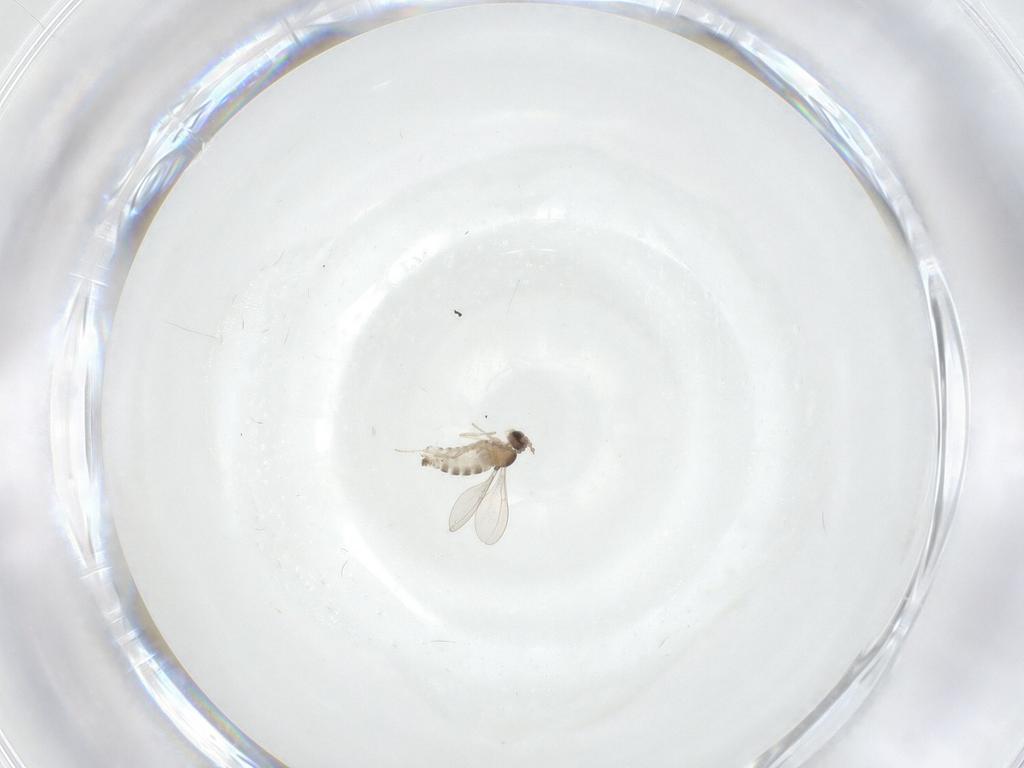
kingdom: Animalia
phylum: Arthropoda
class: Insecta
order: Diptera
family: Cecidomyiidae
